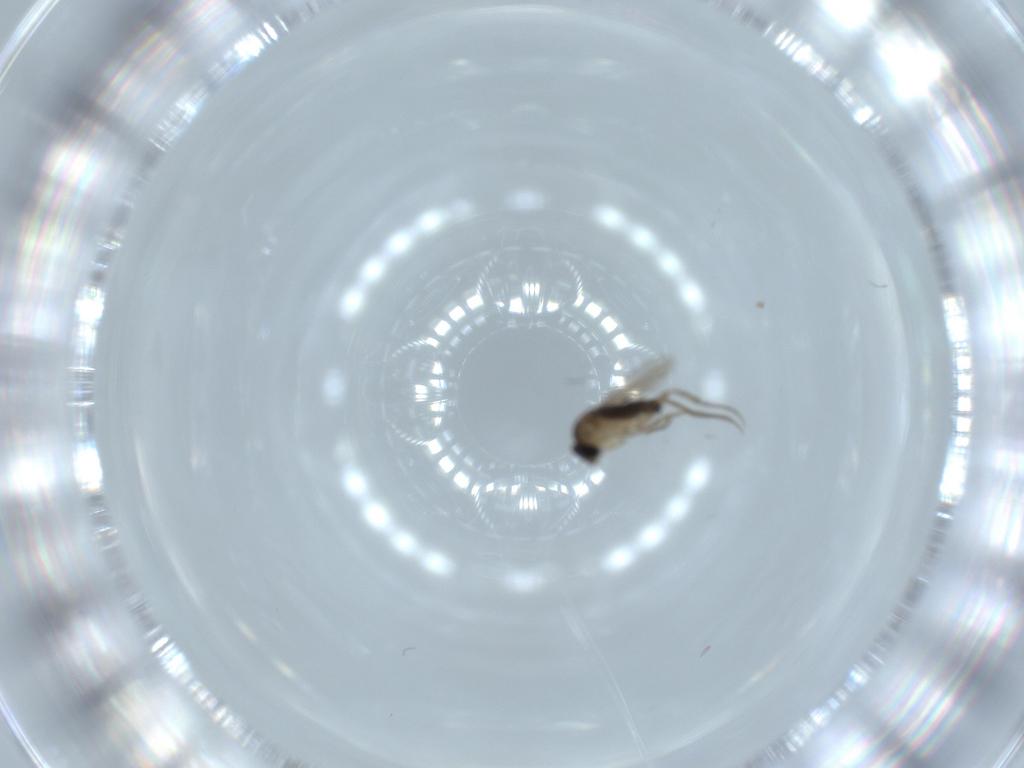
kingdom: Animalia
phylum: Arthropoda
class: Insecta
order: Diptera
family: Phoridae
